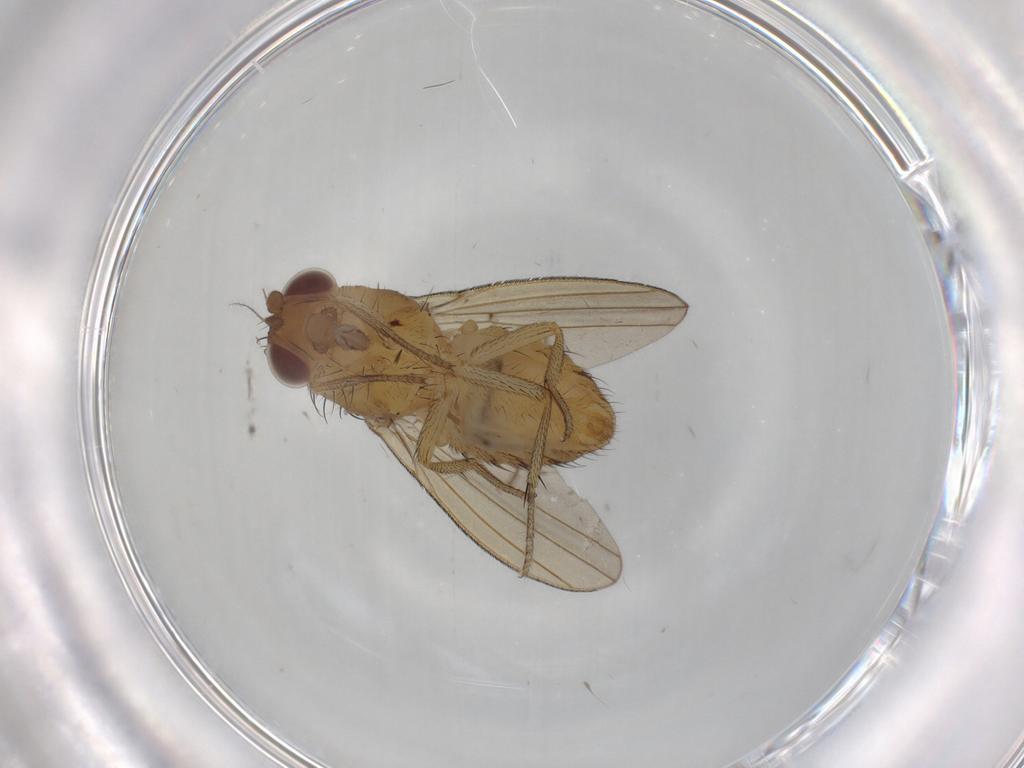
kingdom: Animalia
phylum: Arthropoda
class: Insecta
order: Diptera
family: Lauxaniidae
